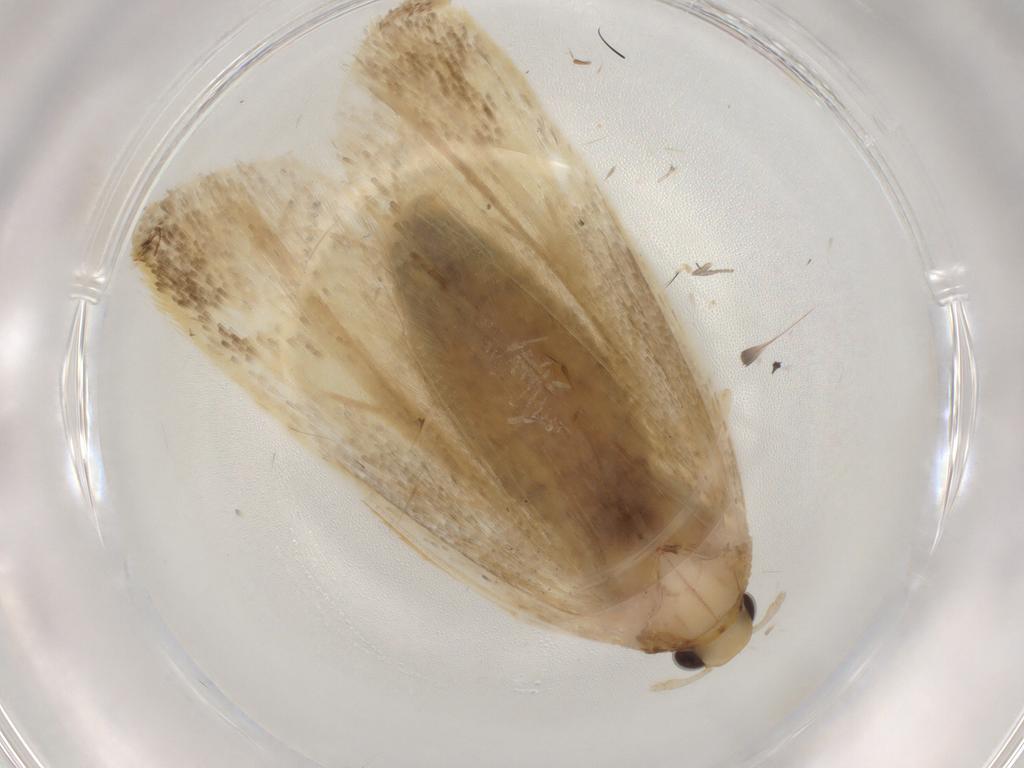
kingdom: Animalia
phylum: Arthropoda
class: Insecta
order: Lepidoptera
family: Lecithoceridae
